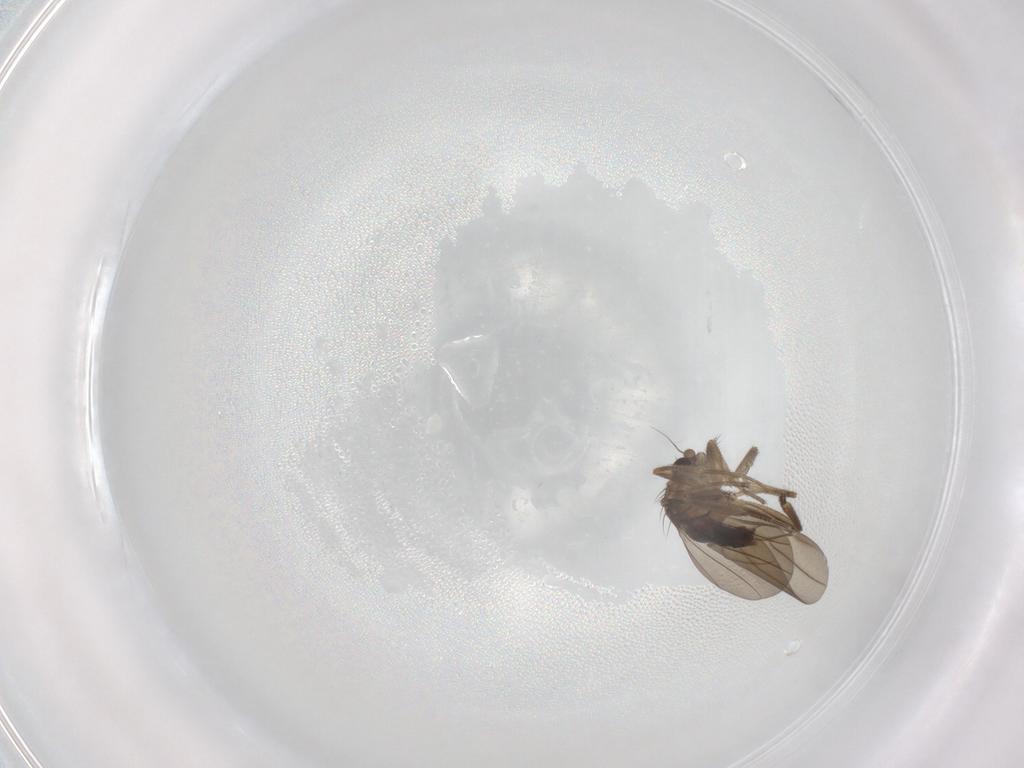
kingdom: Animalia
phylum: Arthropoda
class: Insecta
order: Diptera
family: Phoridae
